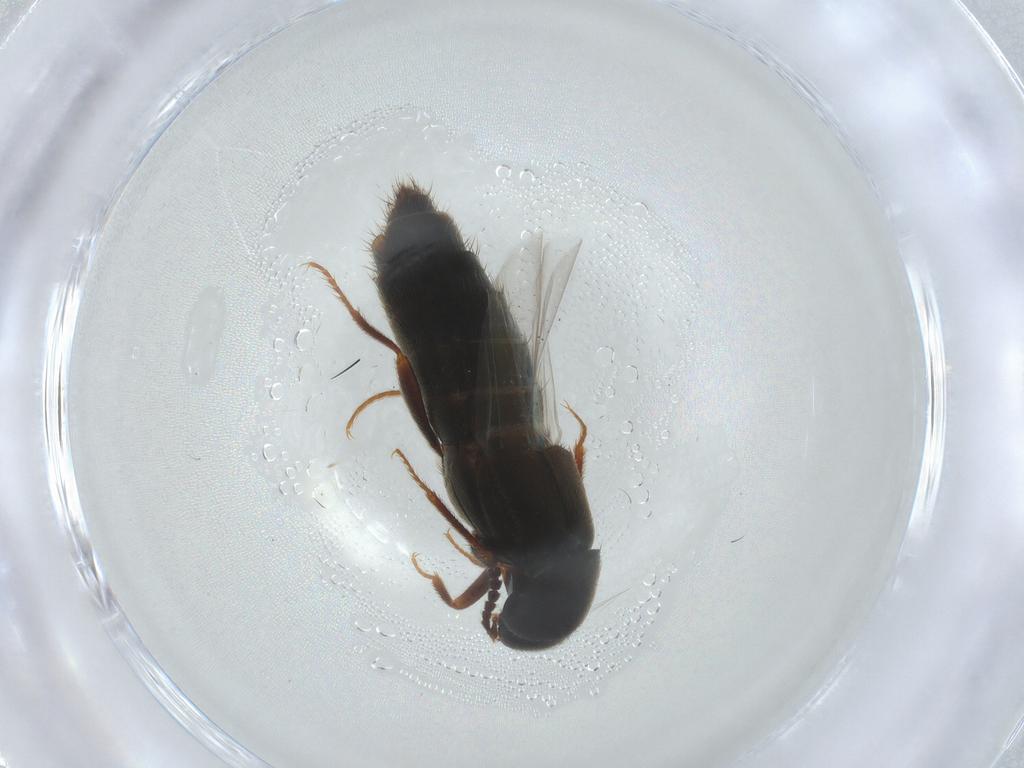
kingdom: Animalia
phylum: Arthropoda
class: Insecta
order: Coleoptera
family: Staphylinidae
